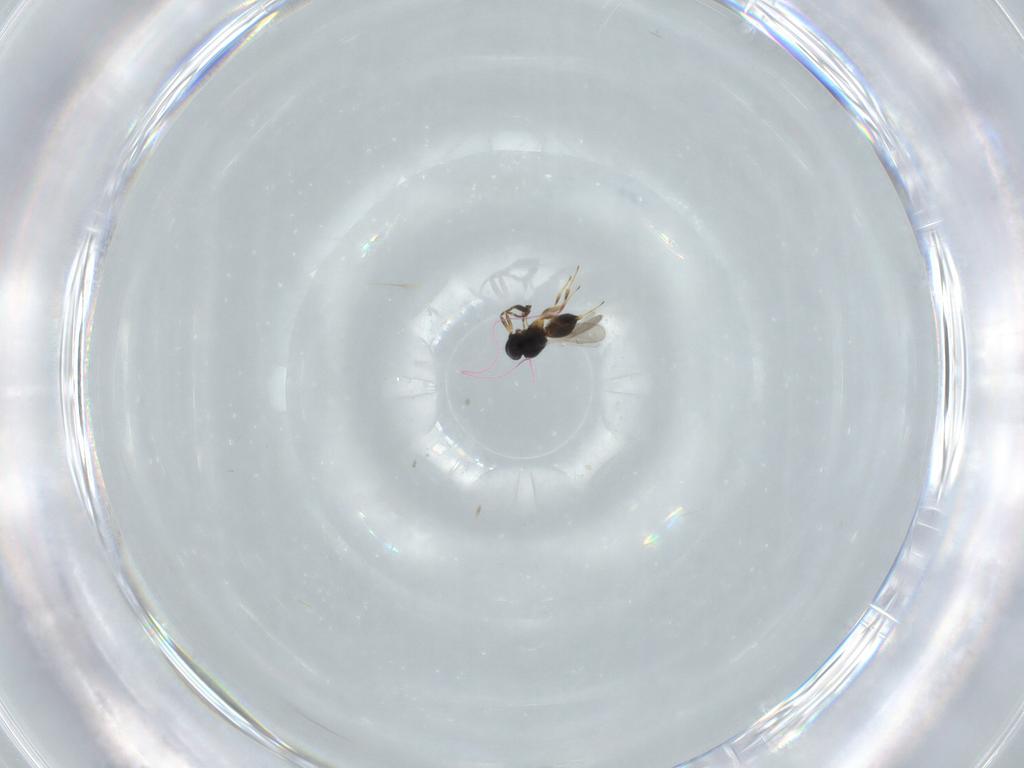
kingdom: Animalia
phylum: Arthropoda
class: Insecta
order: Hymenoptera
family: Scelionidae
